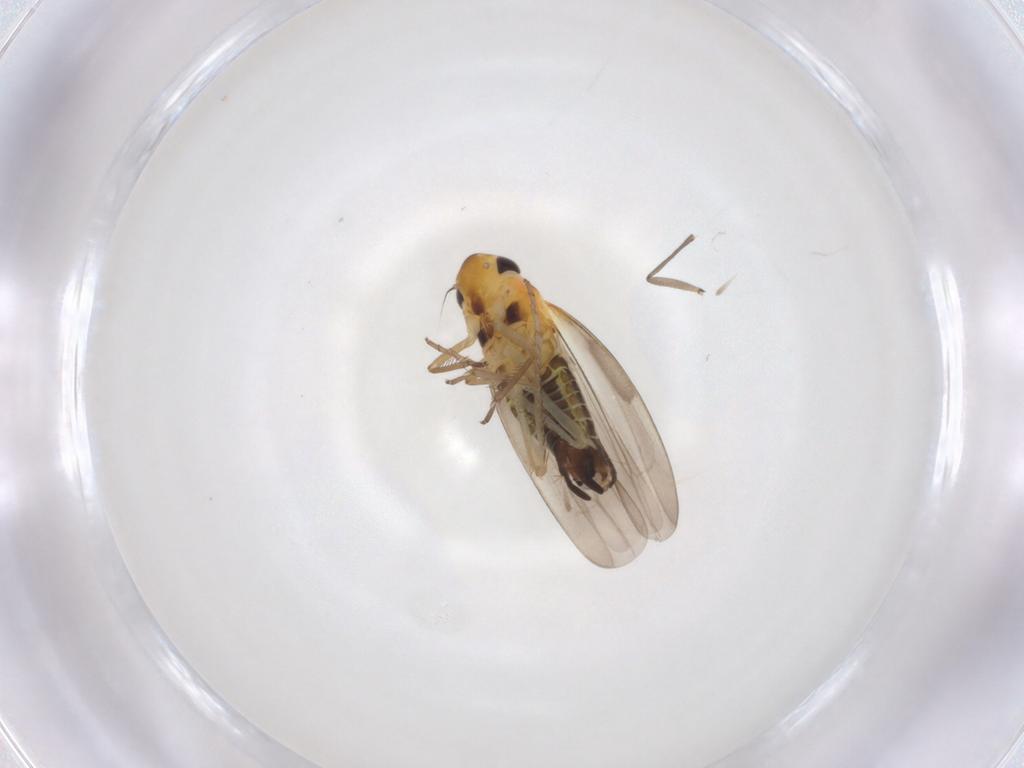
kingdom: Animalia
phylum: Arthropoda
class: Insecta
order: Hemiptera
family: Cicadellidae
